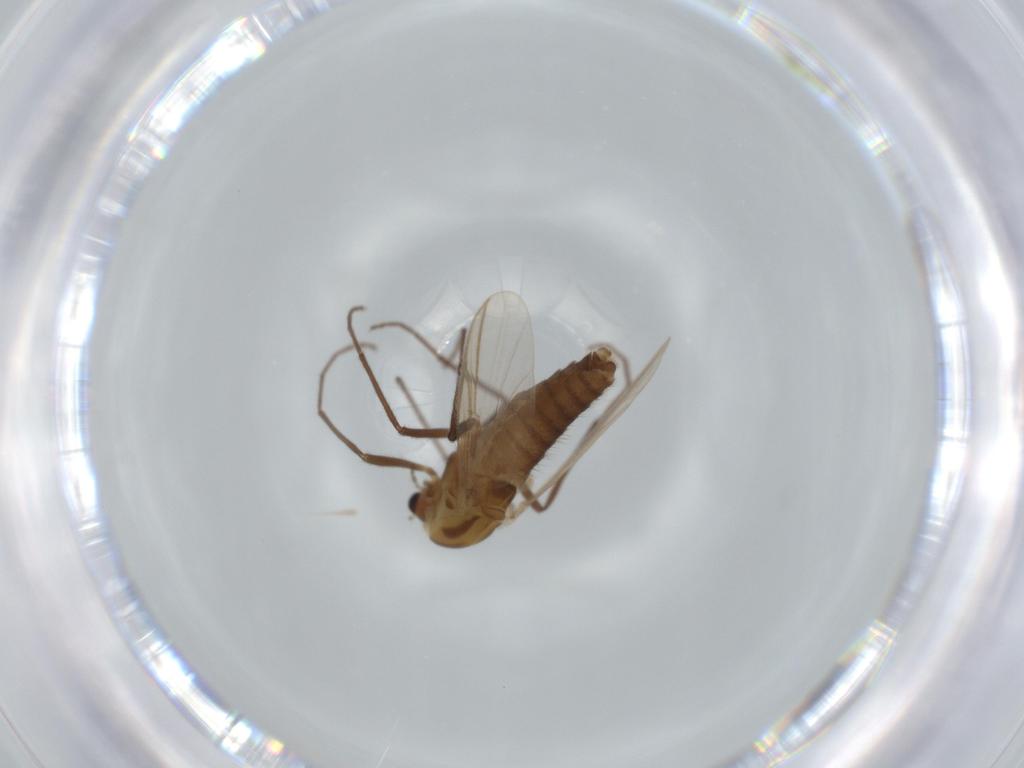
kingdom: Animalia
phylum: Arthropoda
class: Insecta
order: Diptera
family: Chironomidae
